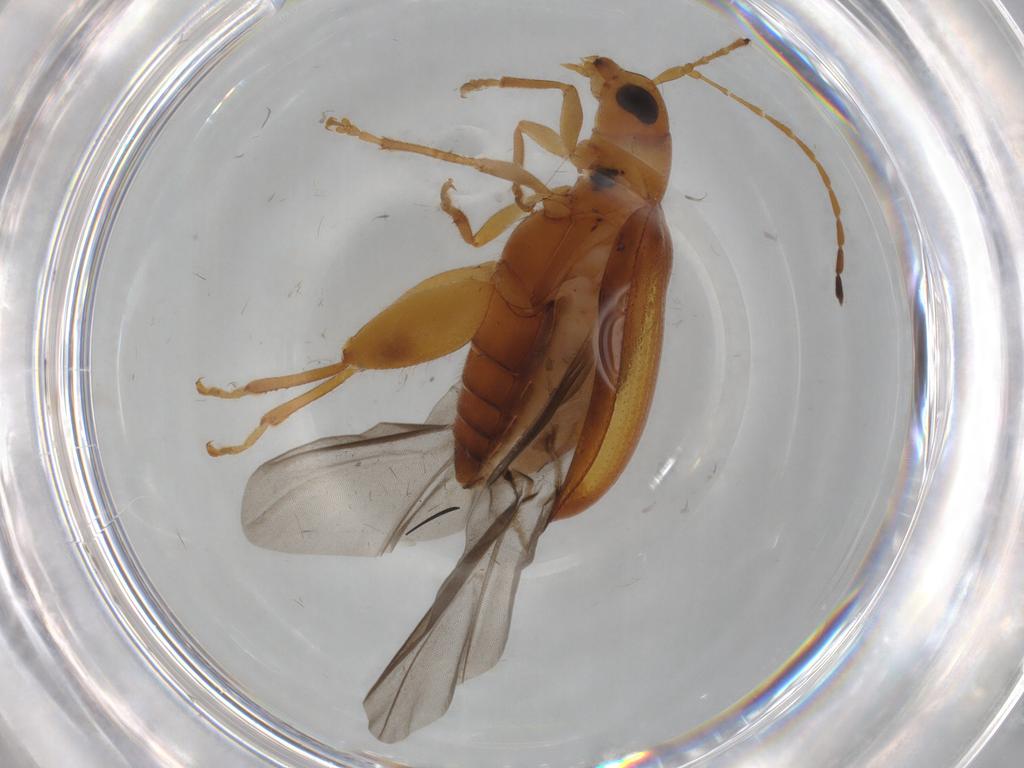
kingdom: Animalia
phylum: Arthropoda
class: Insecta
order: Coleoptera
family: Chrysomelidae
